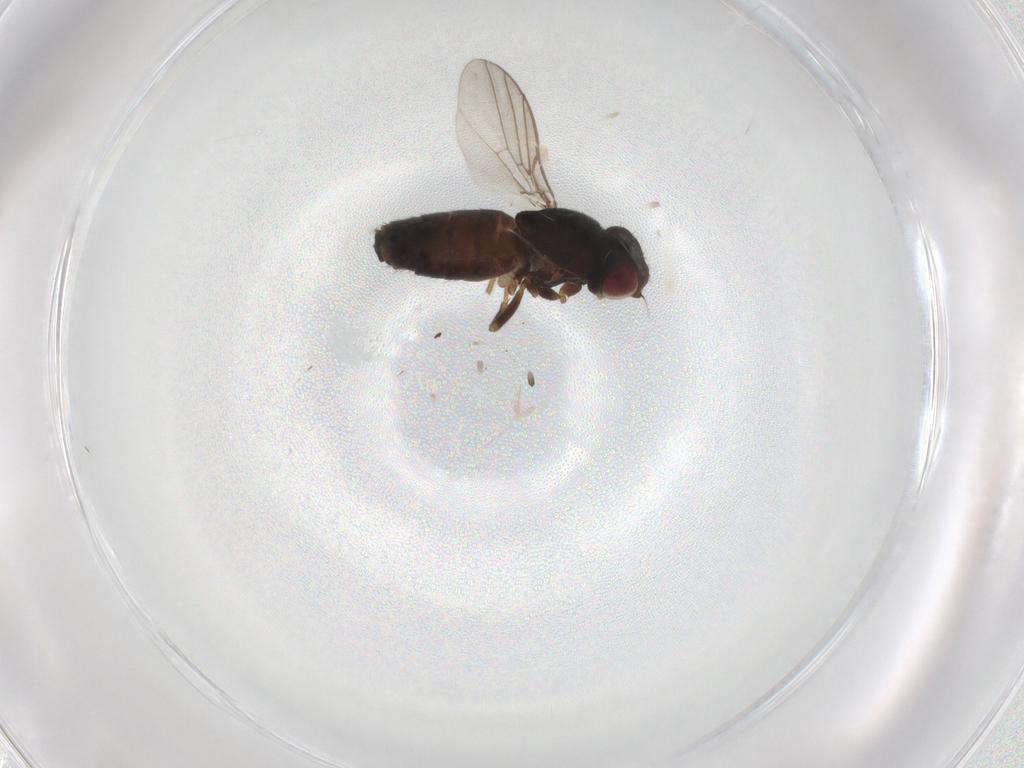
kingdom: Animalia
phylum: Arthropoda
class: Insecta
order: Diptera
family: Chloropidae
